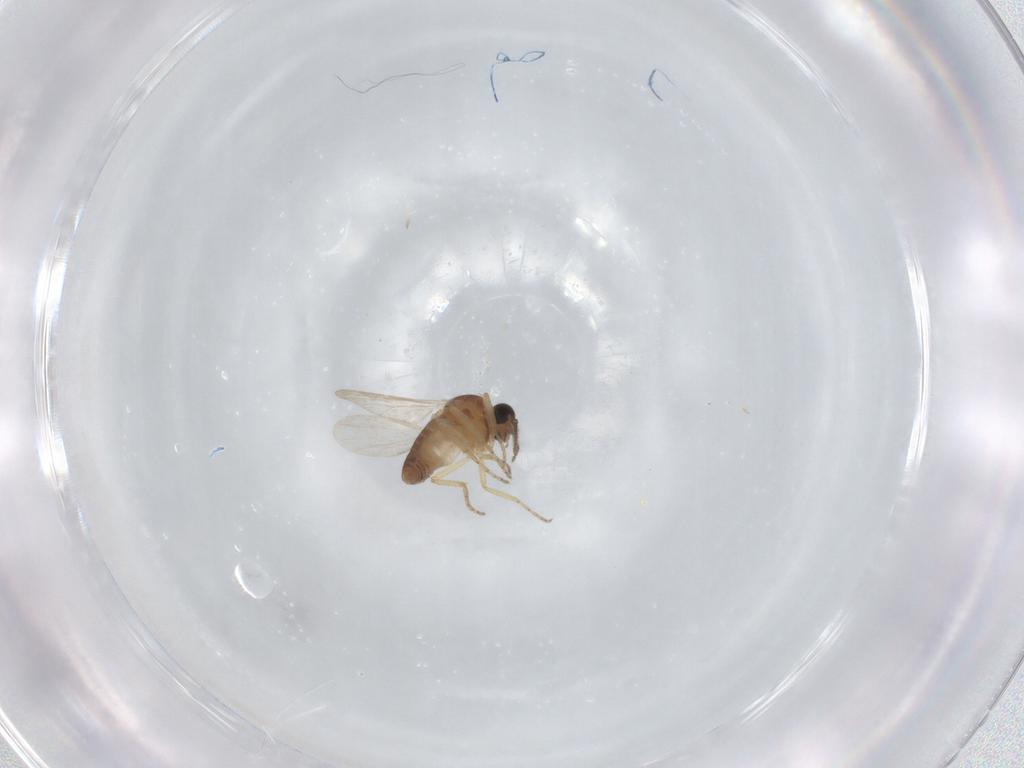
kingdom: Animalia
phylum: Arthropoda
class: Insecta
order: Diptera
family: Ceratopogonidae
